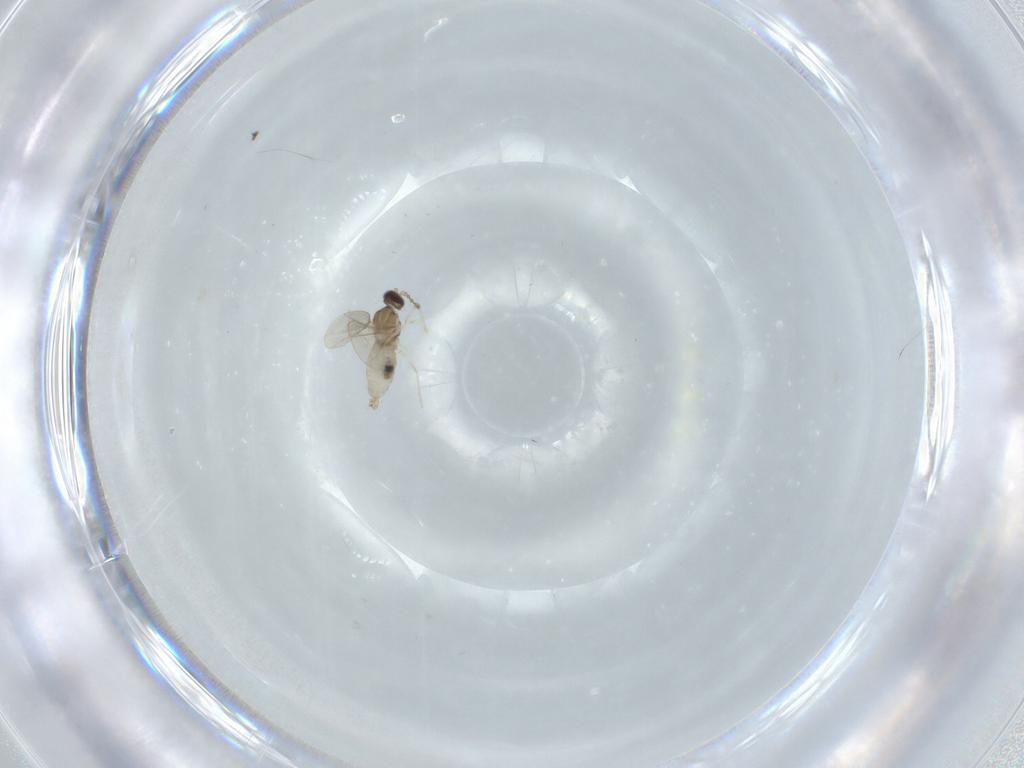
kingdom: Animalia
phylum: Arthropoda
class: Insecta
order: Diptera
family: Cecidomyiidae
